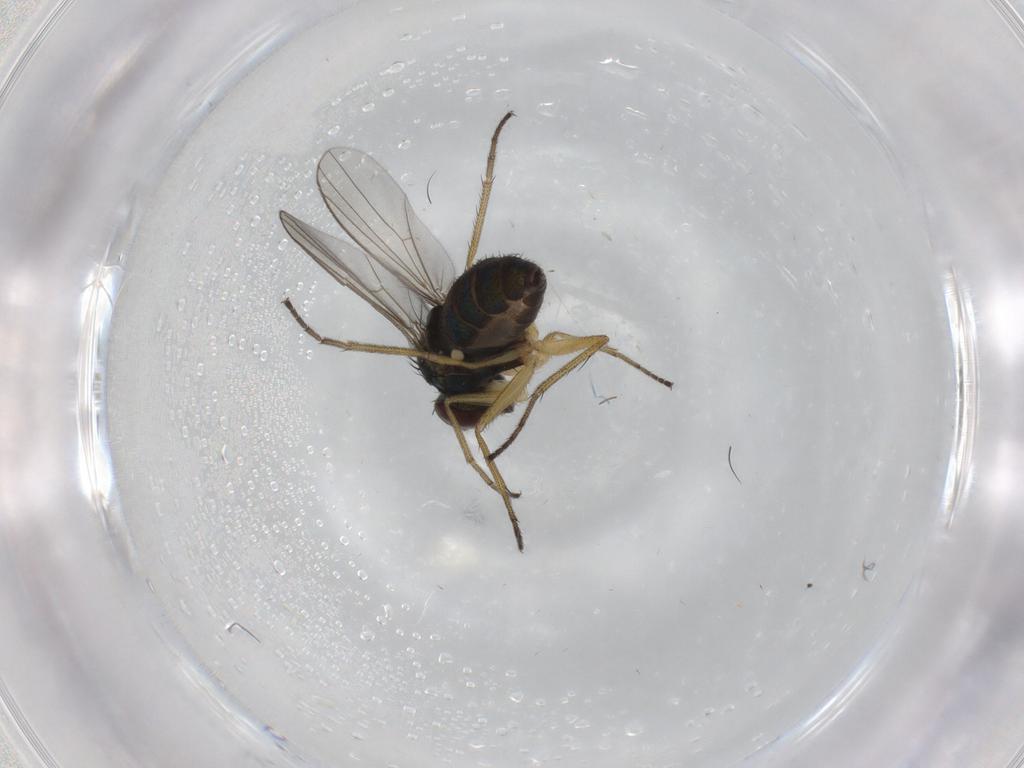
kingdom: Animalia
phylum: Arthropoda
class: Insecta
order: Diptera
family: Dolichopodidae
